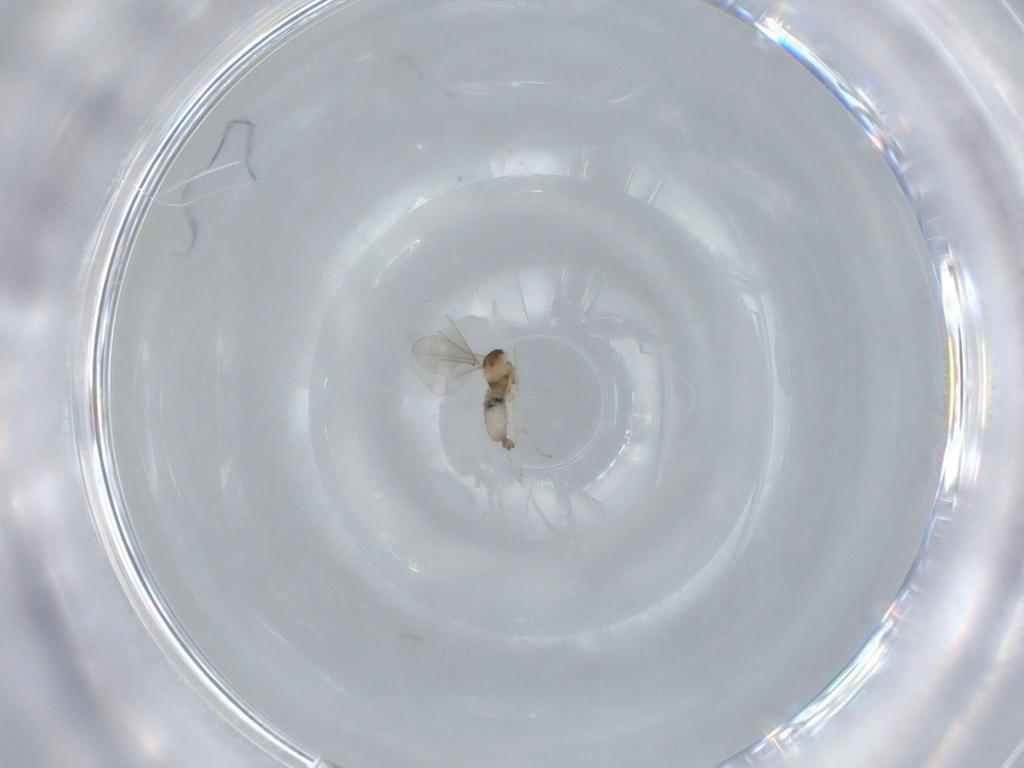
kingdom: Animalia
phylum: Arthropoda
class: Insecta
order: Diptera
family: Cecidomyiidae
